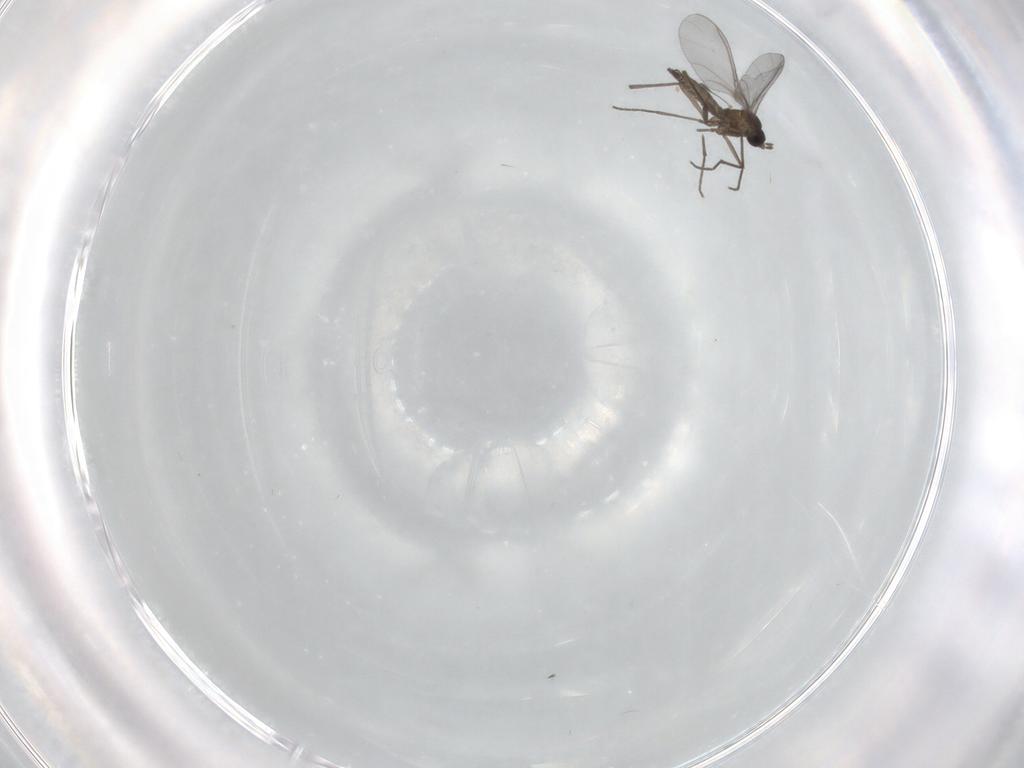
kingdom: Animalia
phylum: Arthropoda
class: Insecta
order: Diptera
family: Sciaridae
